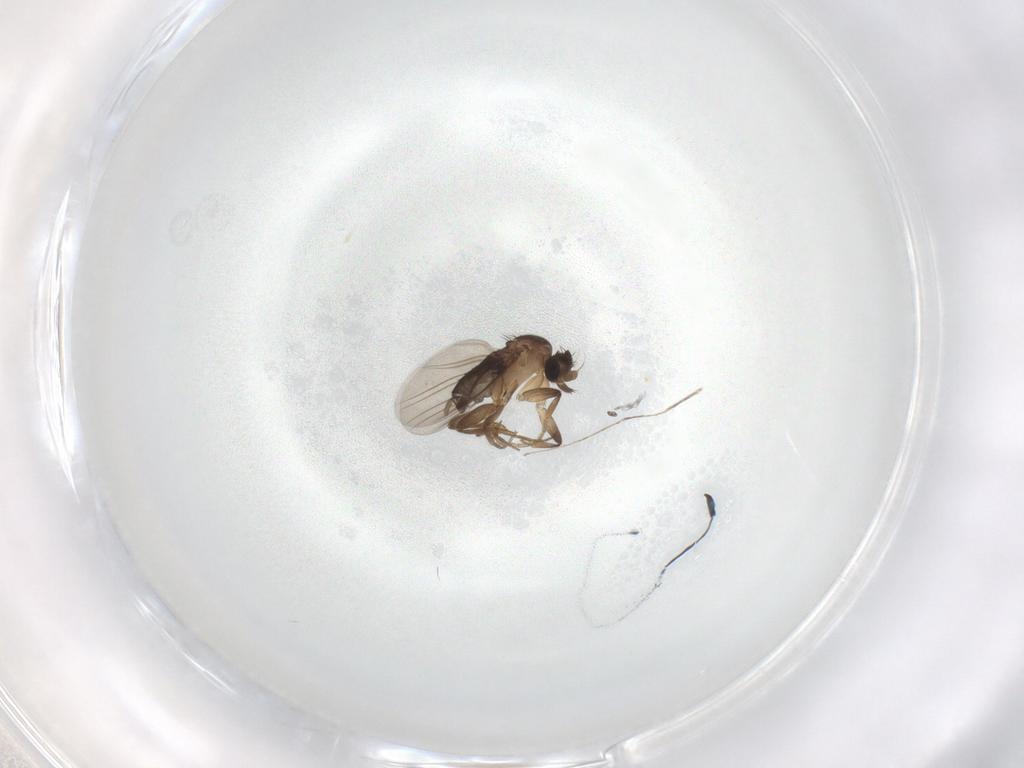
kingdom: Animalia
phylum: Arthropoda
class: Insecta
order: Diptera
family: Phoridae
